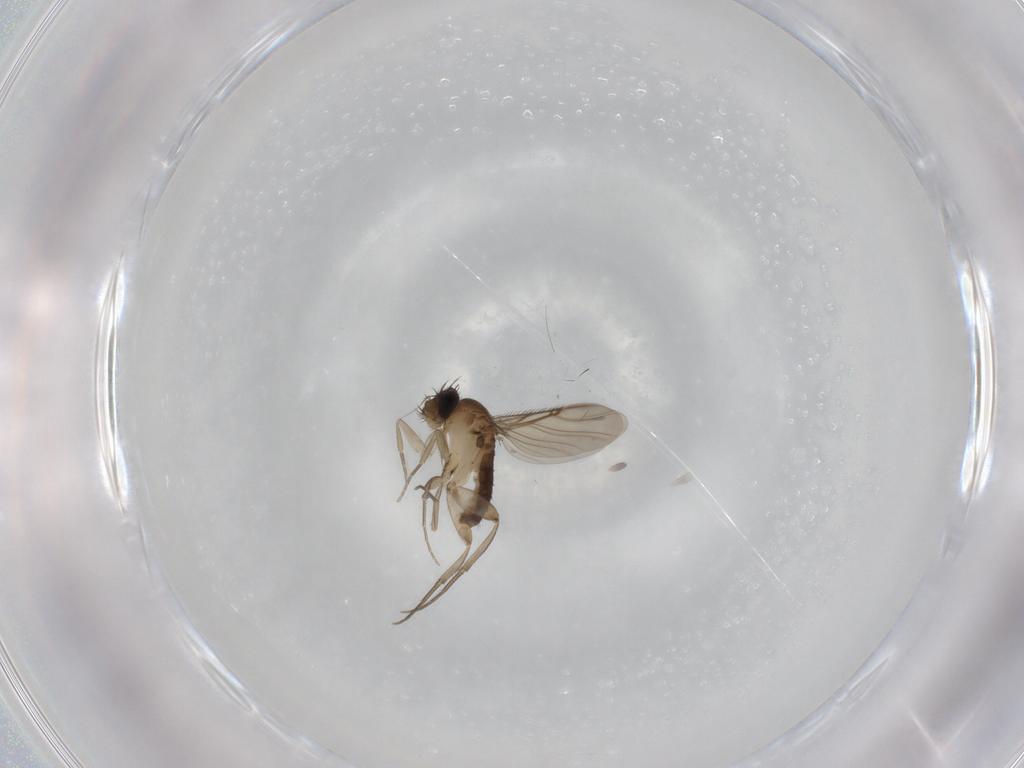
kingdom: Animalia
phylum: Arthropoda
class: Insecta
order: Diptera
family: Phoridae
